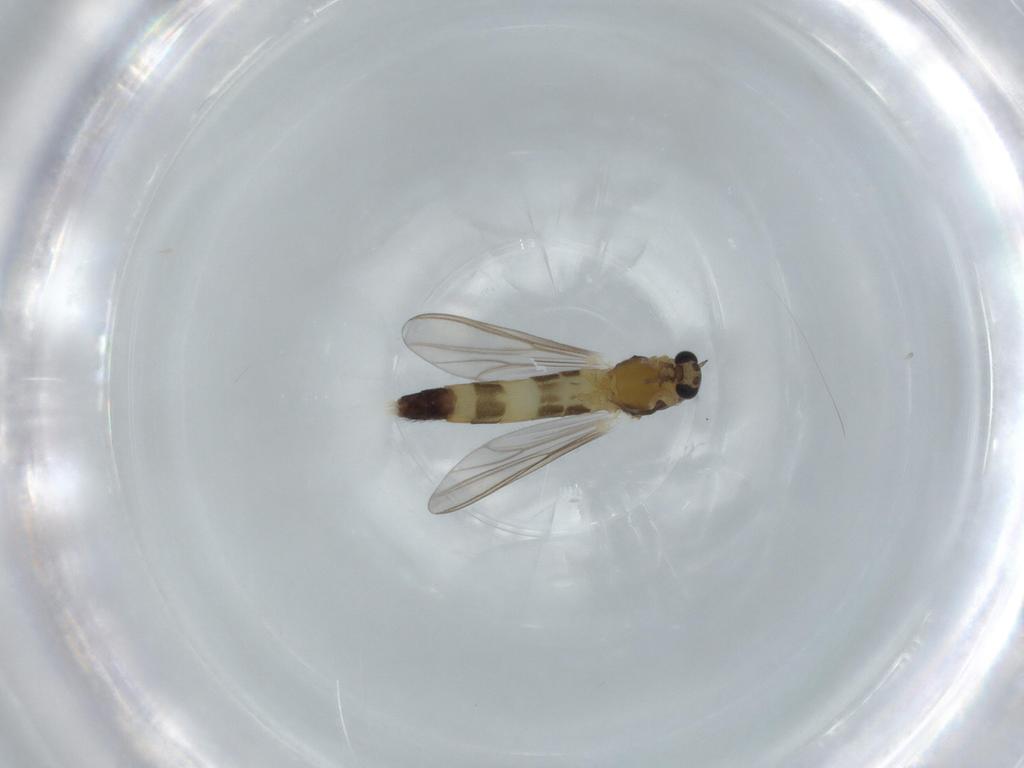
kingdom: Animalia
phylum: Arthropoda
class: Insecta
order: Diptera
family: Chironomidae
